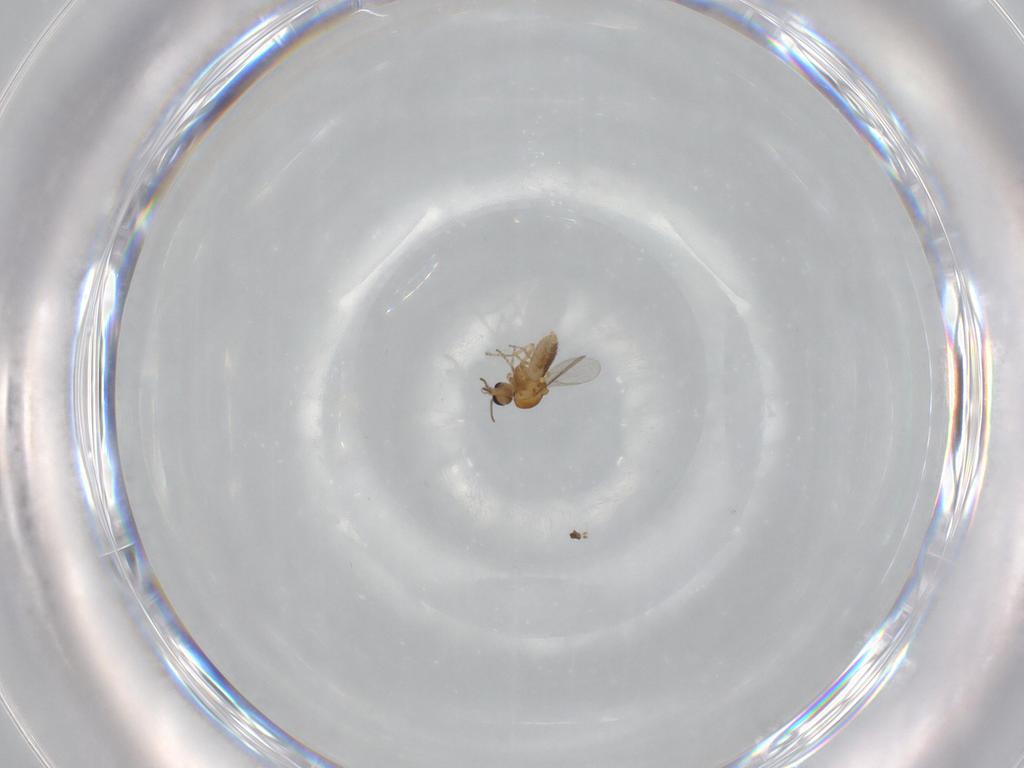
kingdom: Animalia
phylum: Arthropoda
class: Insecta
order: Diptera
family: Ceratopogonidae
